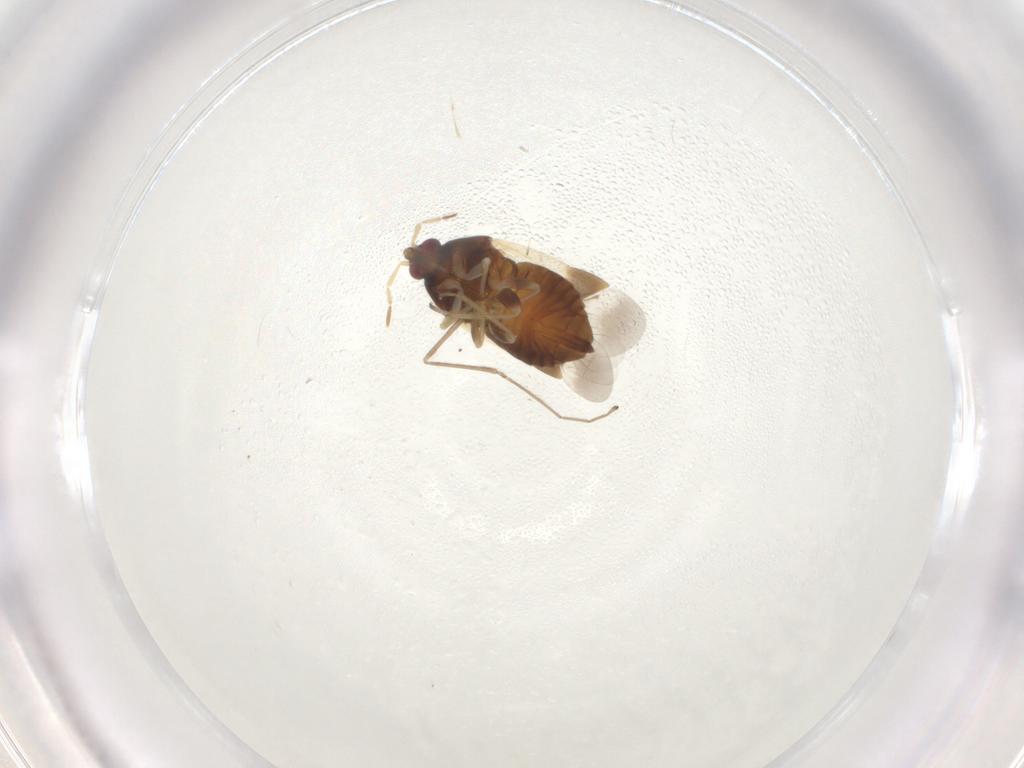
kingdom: Animalia
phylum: Arthropoda
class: Insecta
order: Hemiptera
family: Anthocoridae
